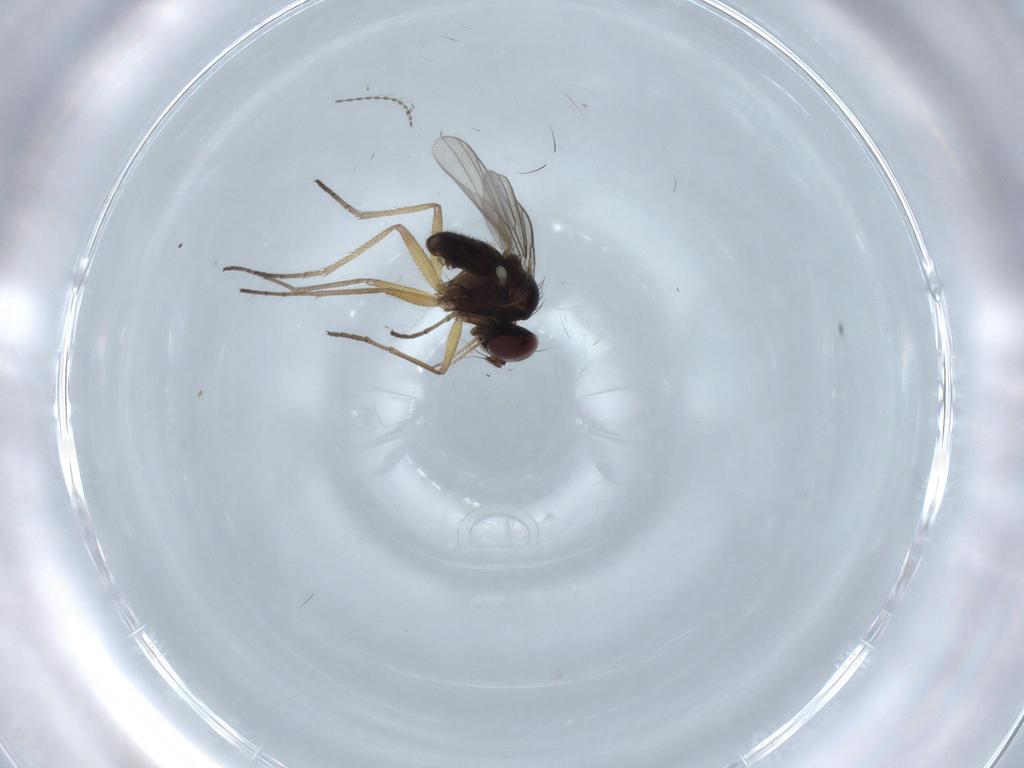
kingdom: Animalia
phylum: Arthropoda
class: Insecta
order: Diptera
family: Dolichopodidae
